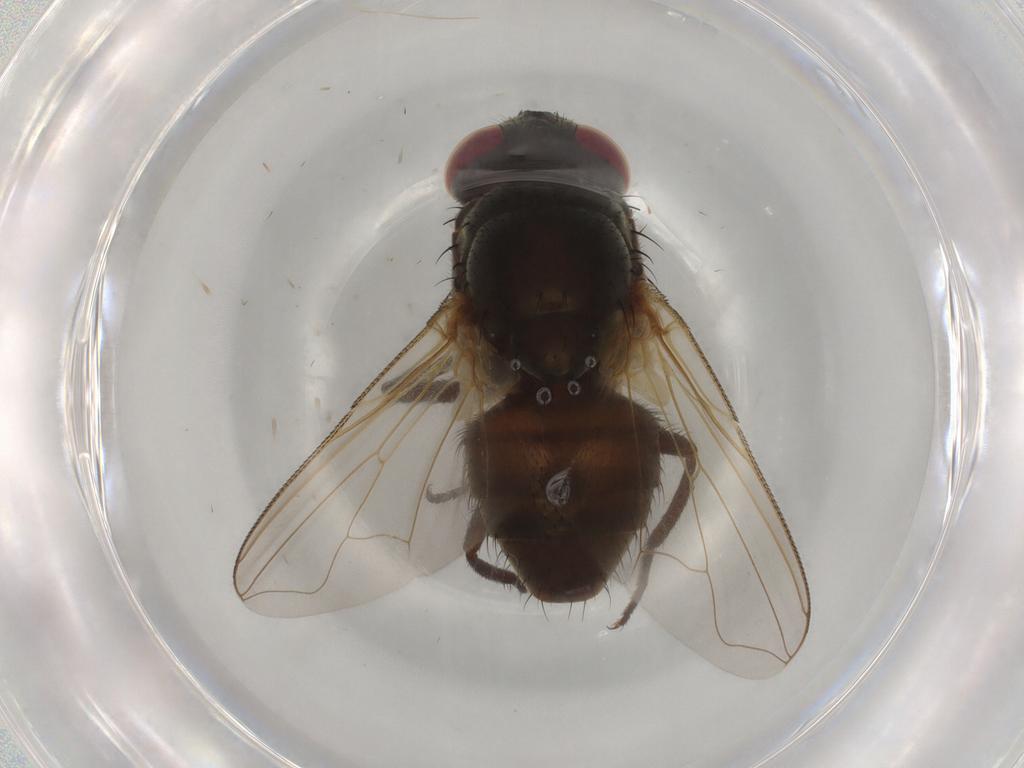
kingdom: Animalia
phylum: Arthropoda
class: Insecta
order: Diptera
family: Muscidae
